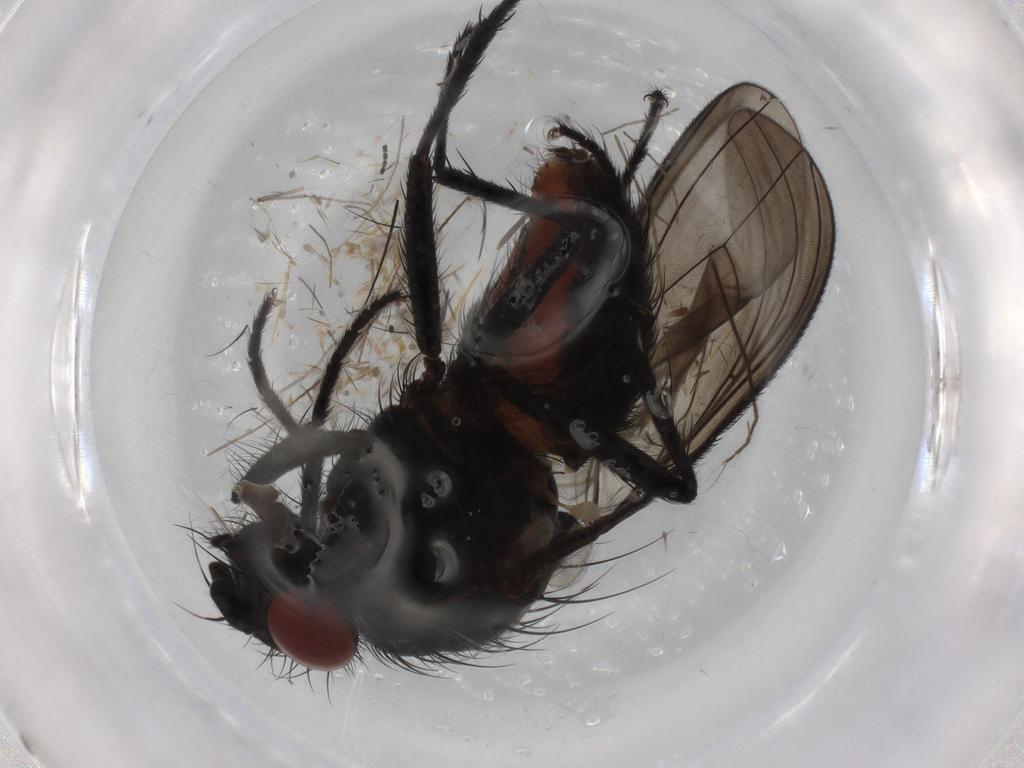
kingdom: Animalia
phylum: Arthropoda
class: Insecta
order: Diptera
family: Anthomyiidae
